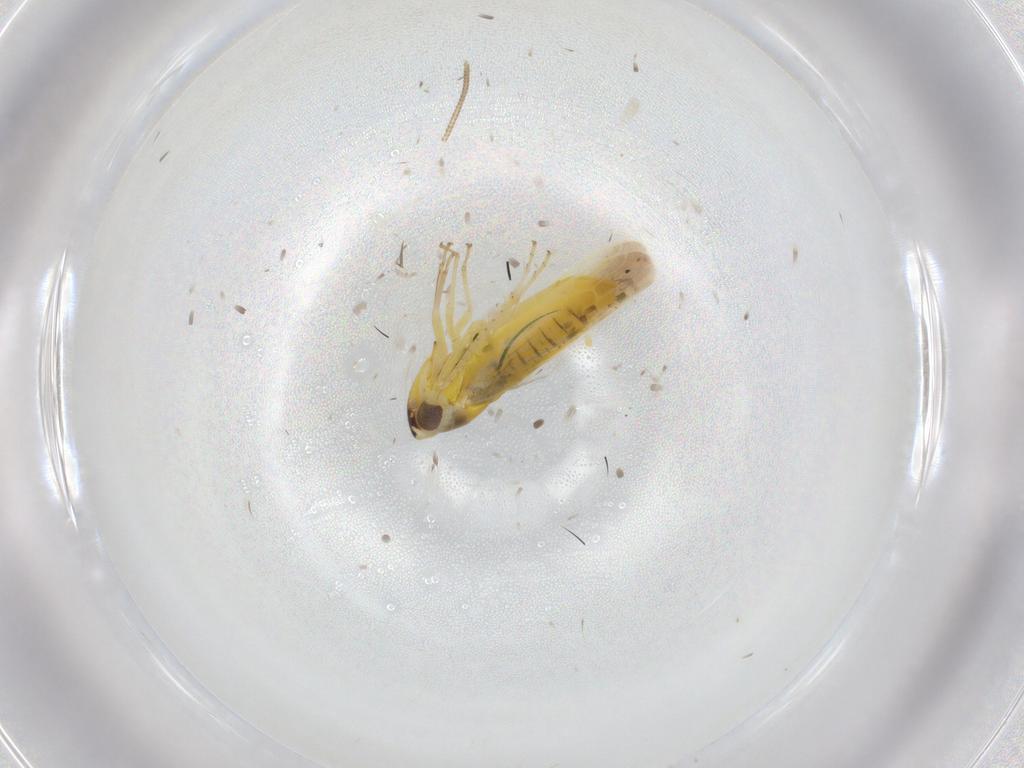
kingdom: Animalia
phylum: Arthropoda
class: Insecta
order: Hemiptera
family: Cicadellidae
